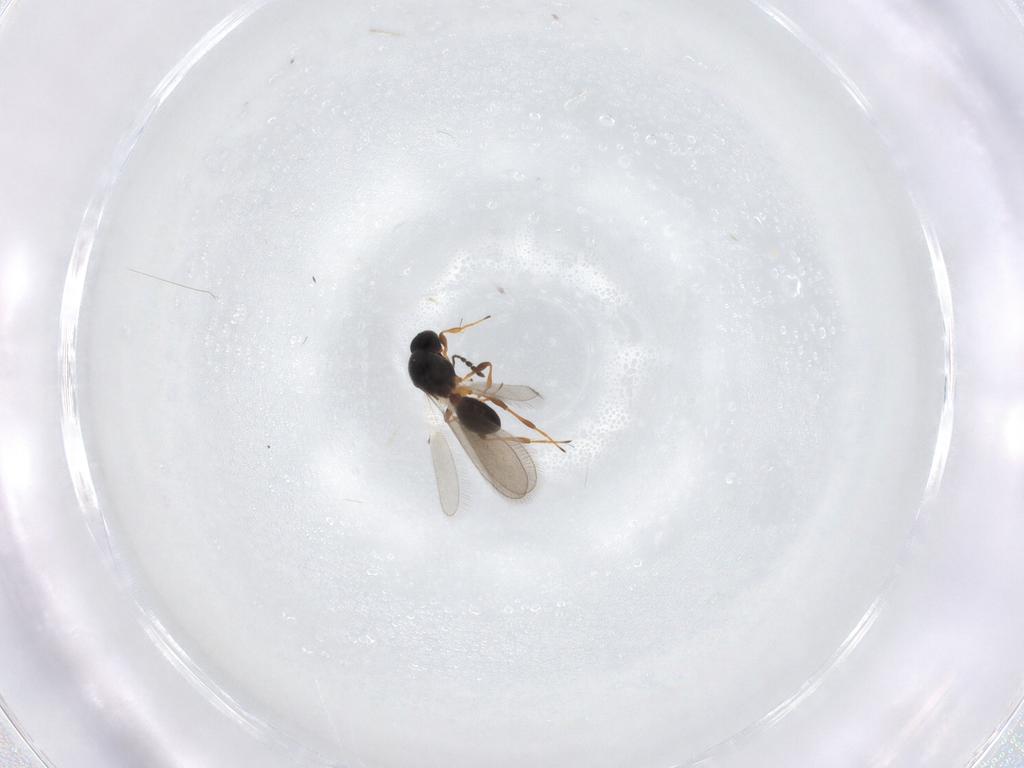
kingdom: Animalia
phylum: Arthropoda
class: Insecta
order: Hymenoptera
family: Platygastridae
